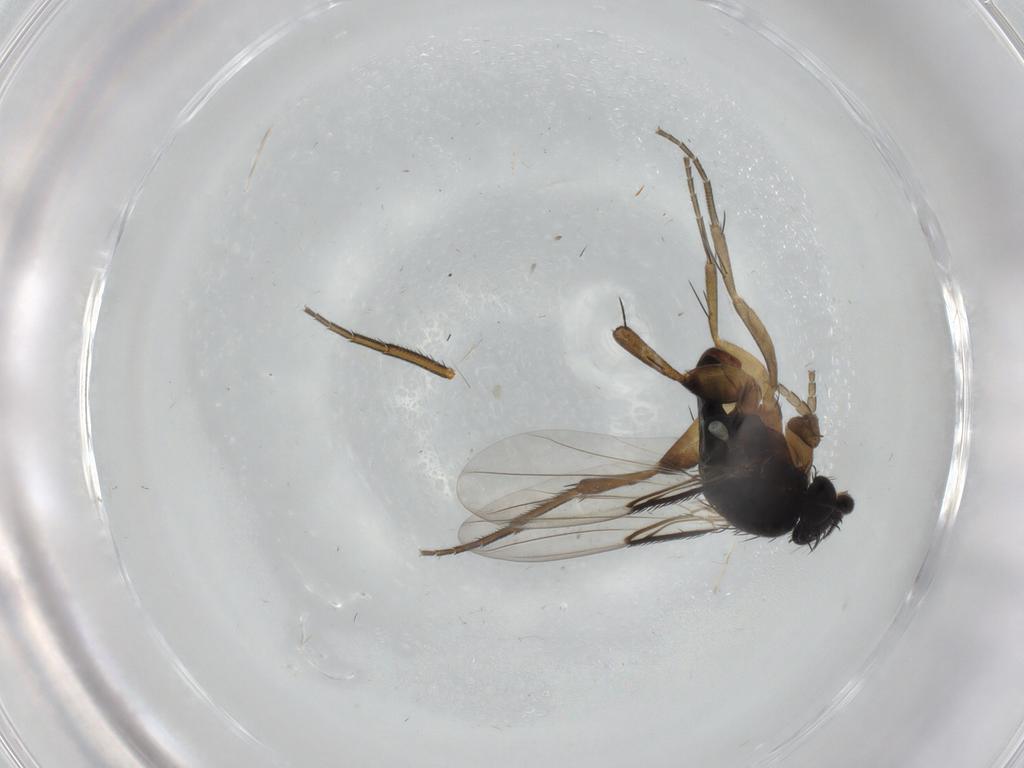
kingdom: Animalia
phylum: Arthropoda
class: Insecta
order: Diptera
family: Phoridae
